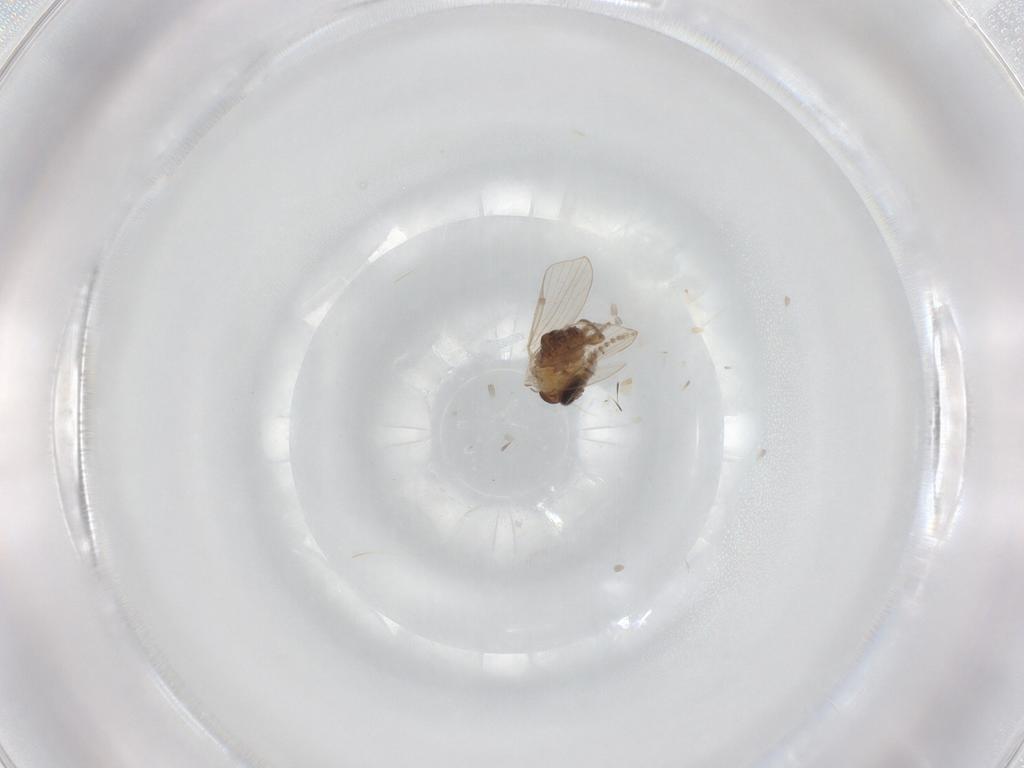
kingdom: Animalia
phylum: Arthropoda
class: Insecta
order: Diptera
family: Psychodidae
